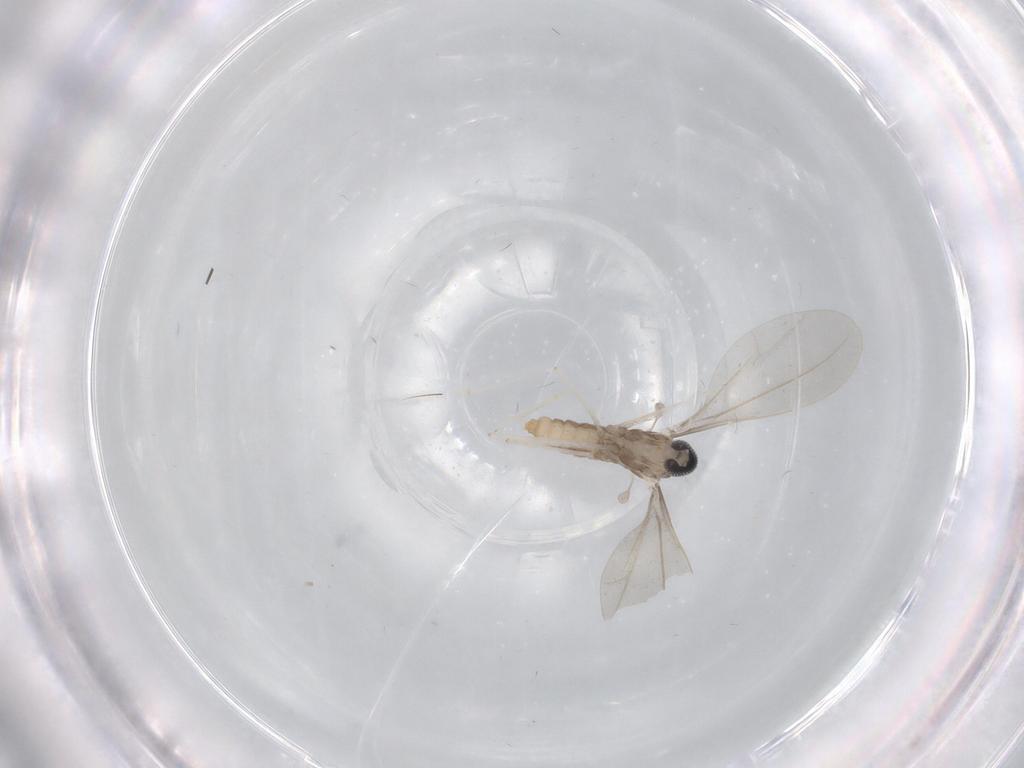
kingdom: Animalia
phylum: Arthropoda
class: Insecta
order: Diptera
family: Cecidomyiidae
